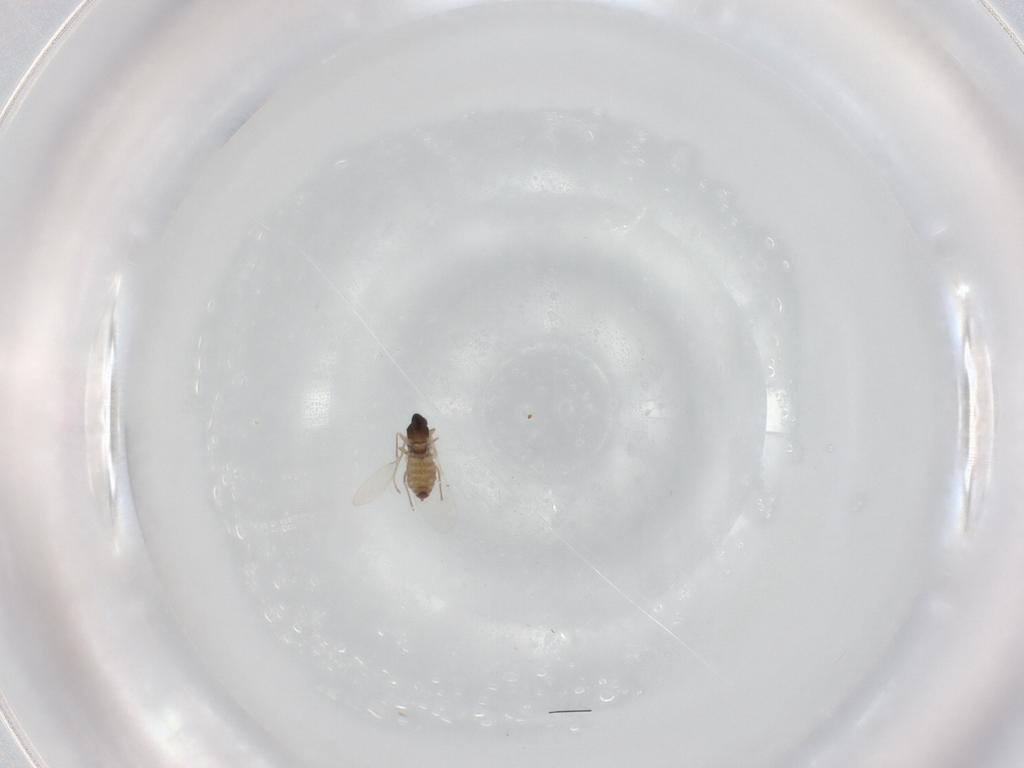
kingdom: Animalia
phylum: Arthropoda
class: Insecta
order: Diptera
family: Cecidomyiidae
